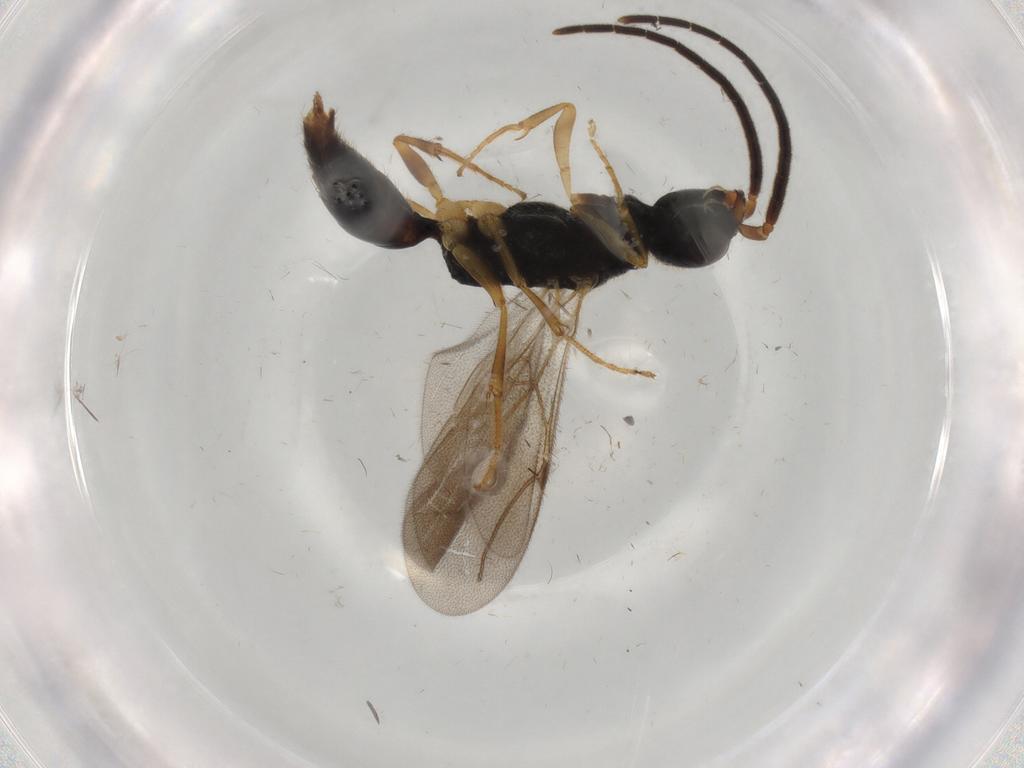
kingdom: Animalia
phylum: Arthropoda
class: Insecta
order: Hymenoptera
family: Bethylidae
